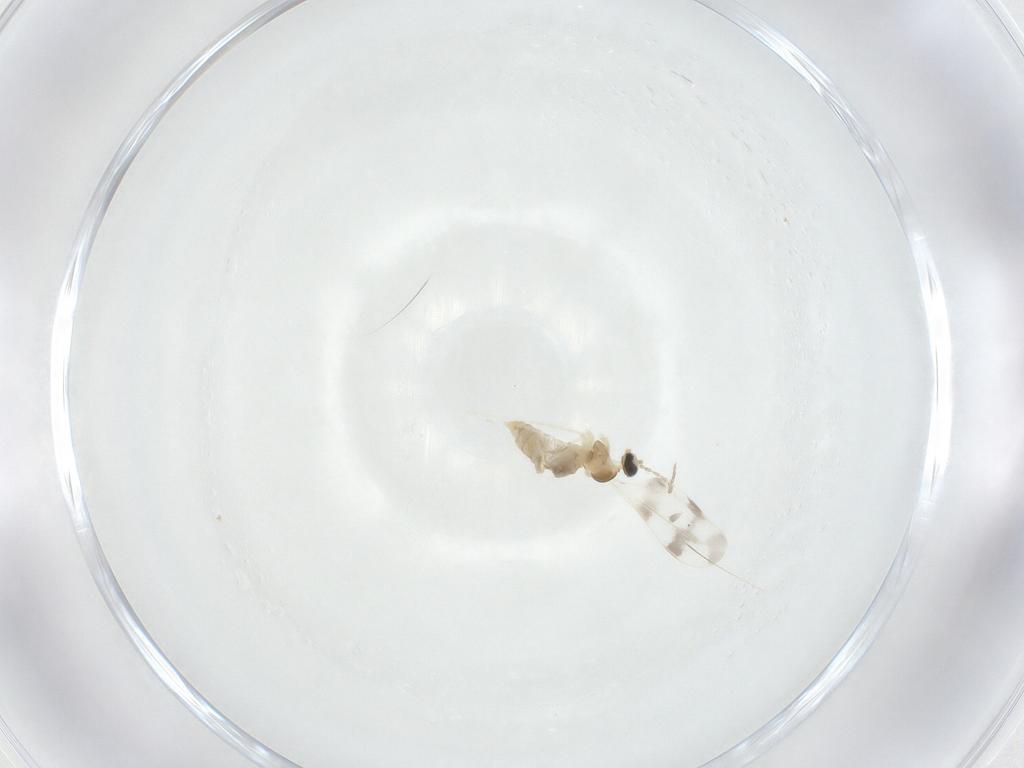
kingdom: Animalia
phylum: Arthropoda
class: Insecta
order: Diptera
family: Cecidomyiidae
